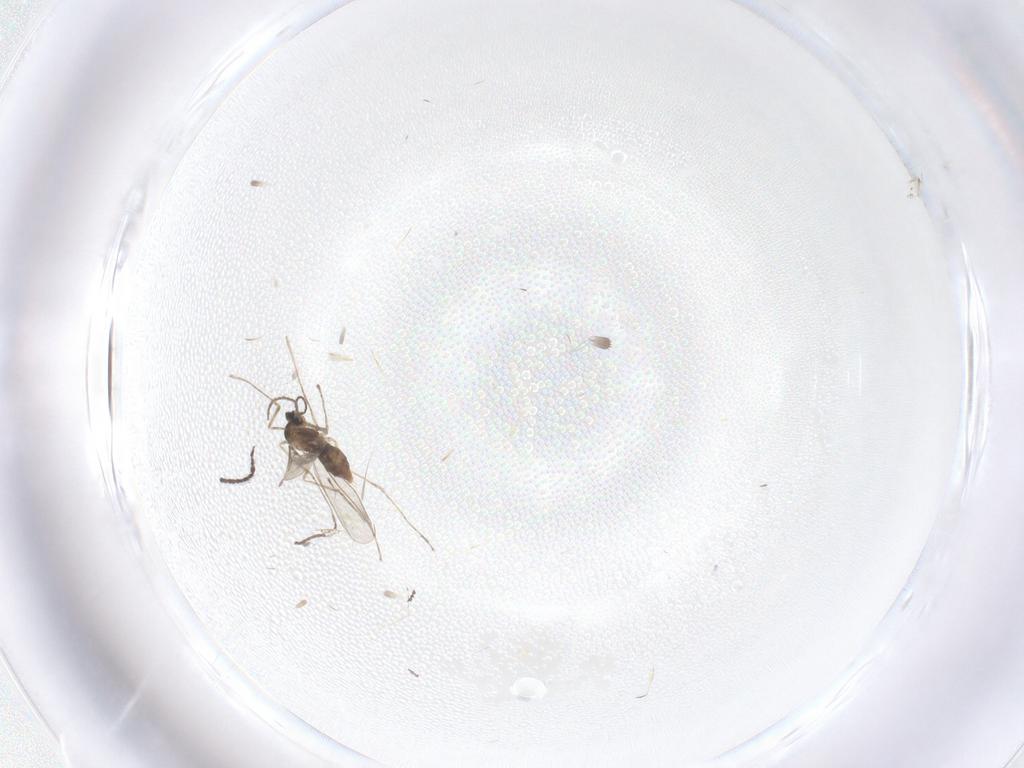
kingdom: Animalia
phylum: Arthropoda
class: Insecta
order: Diptera
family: Cecidomyiidae
